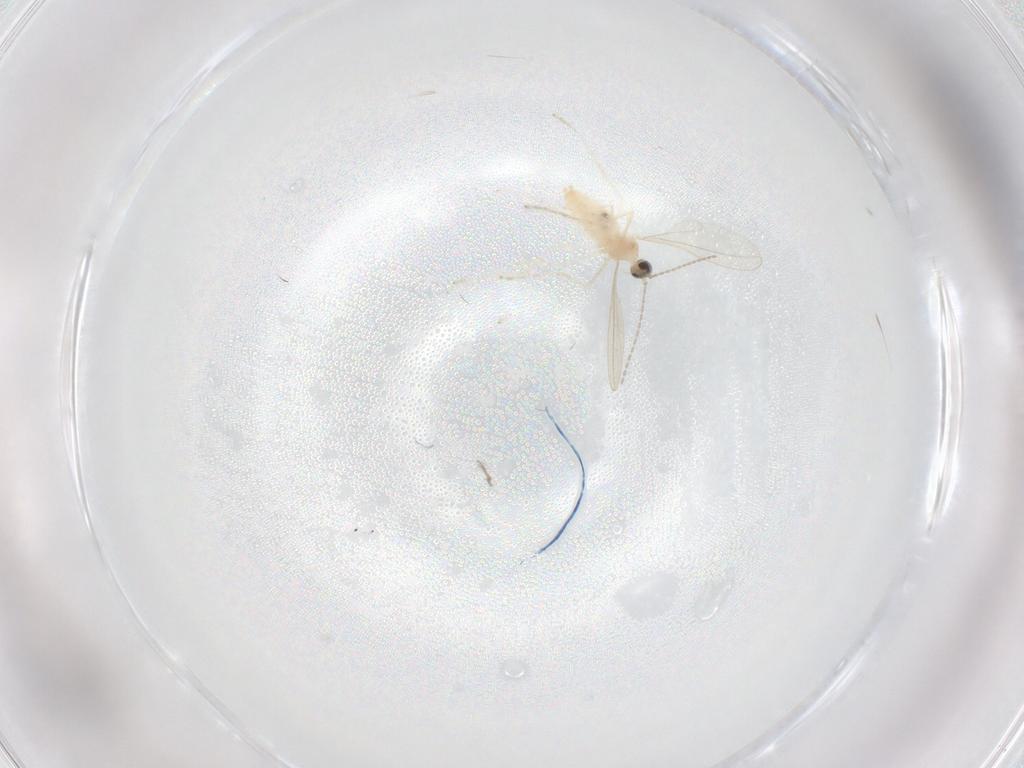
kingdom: Animalia
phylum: Arthropoda
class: Insecta
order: Diptera
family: Cecidomyiidae
